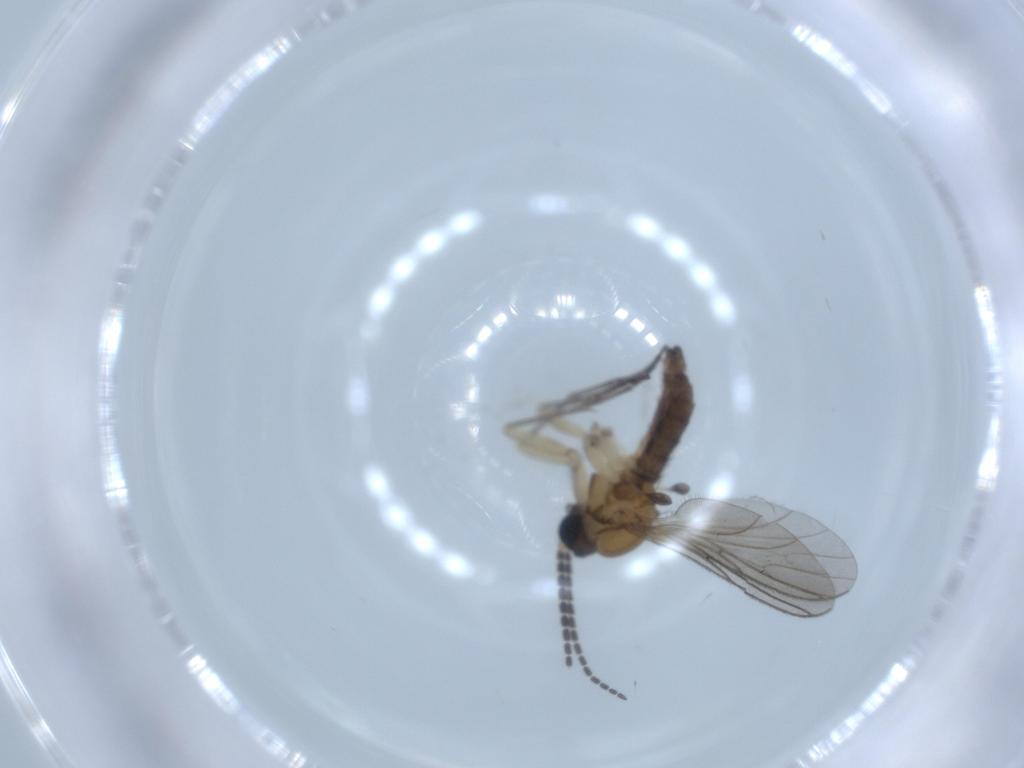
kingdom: Animalia
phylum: Arthropoda
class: Insecta
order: Diptera
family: Sciaridae
